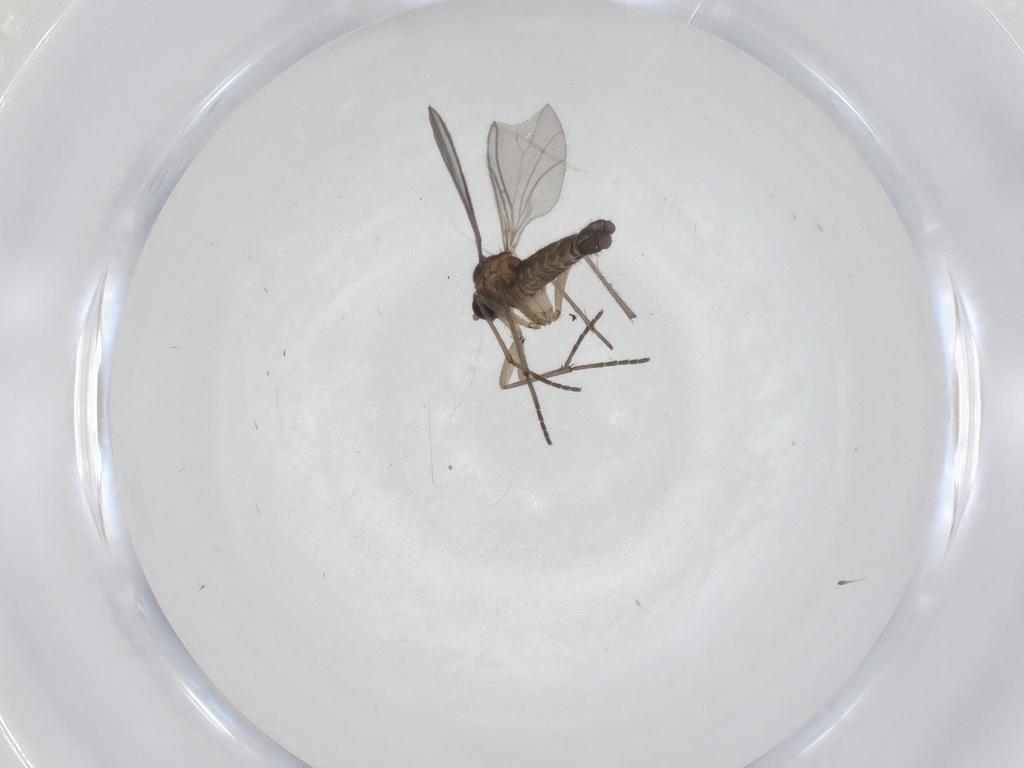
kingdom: Animalia
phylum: Arthropoda
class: Insecta
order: Diptera
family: Sciaridae
